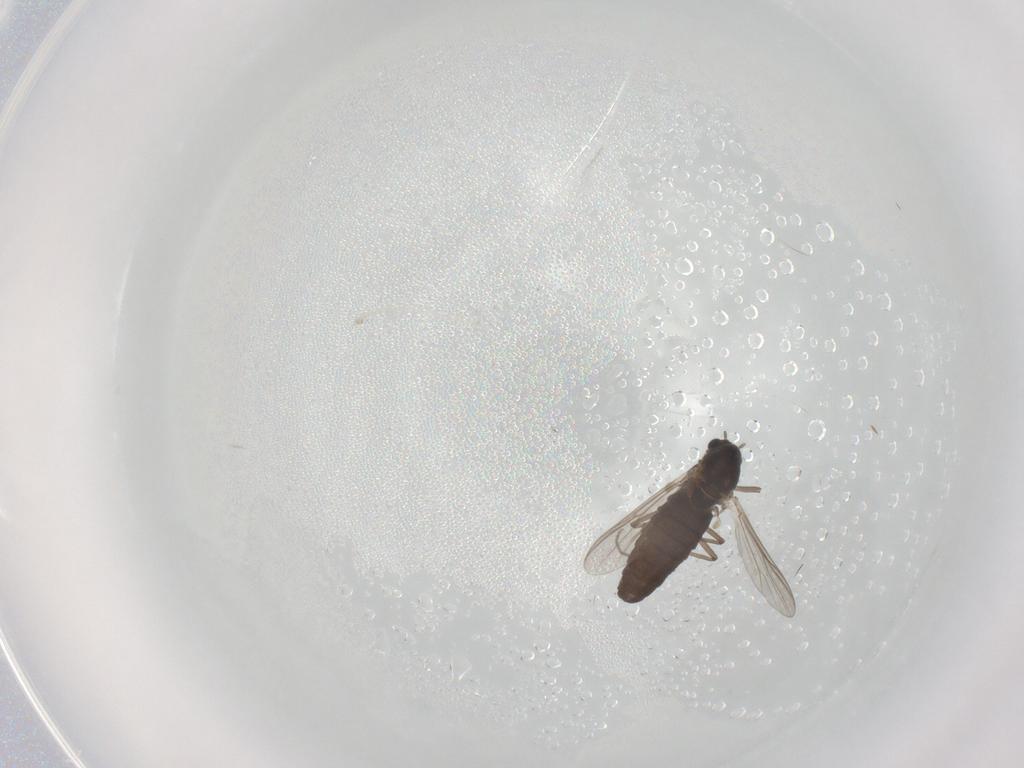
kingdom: Animalia
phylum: Arthropoda
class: Insecta
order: Diptera
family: Chironomidae
